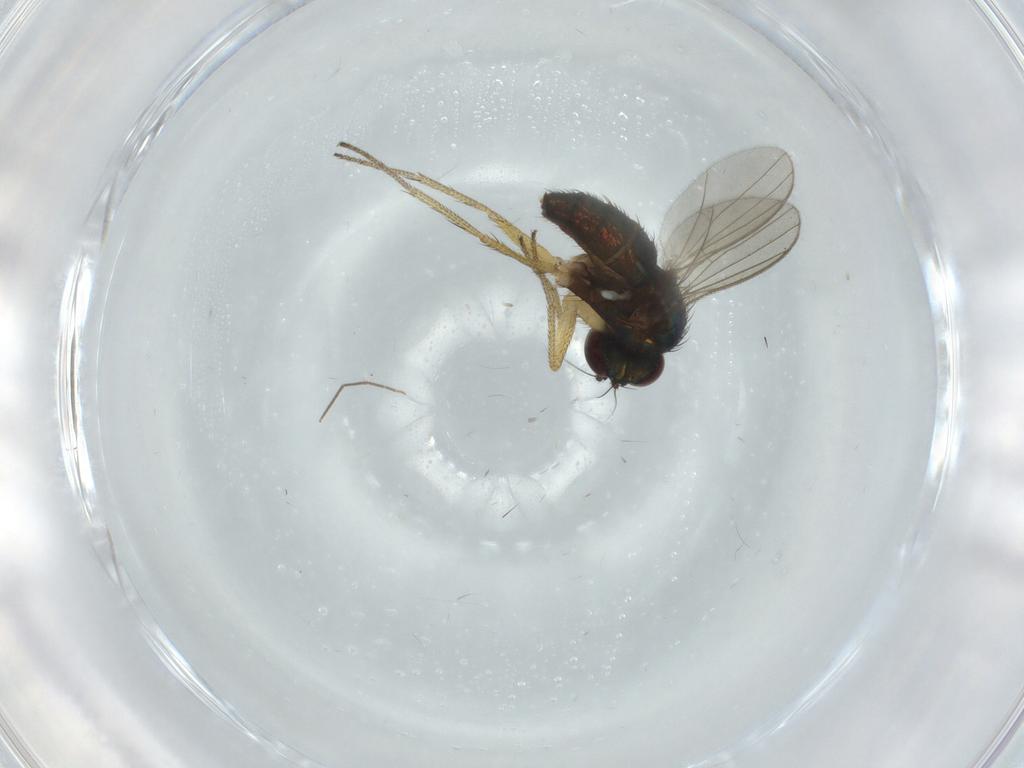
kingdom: Animalia
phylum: Arthropoda
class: Insecta
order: Diptera
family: Dolichopodidae
